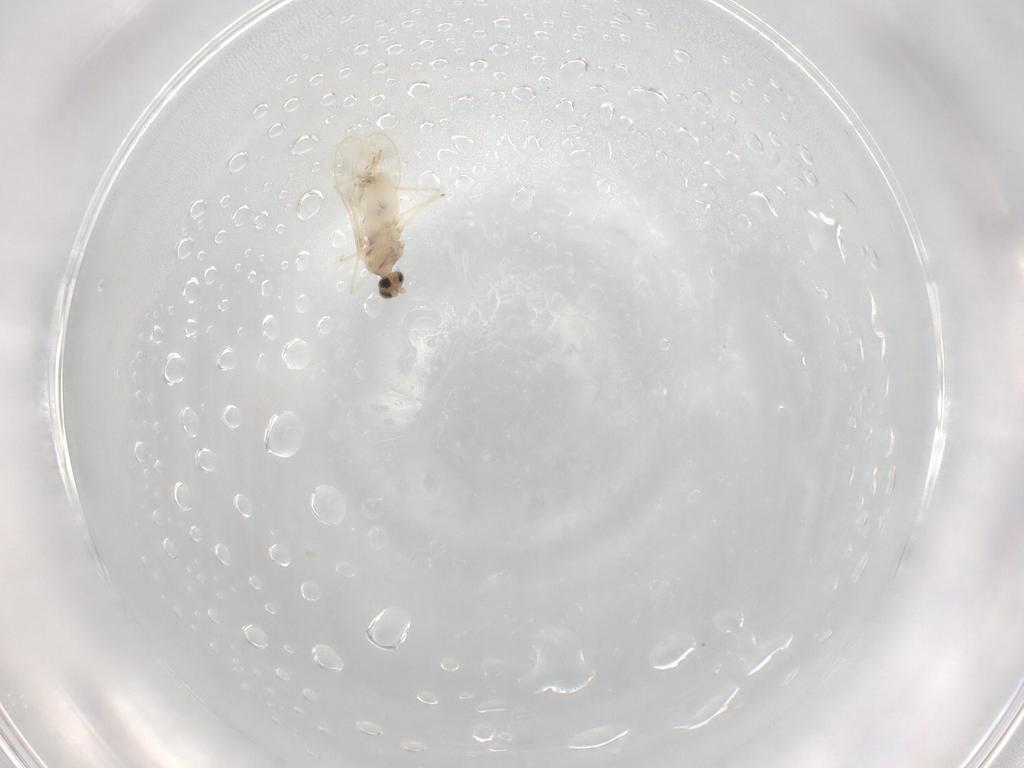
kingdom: Animalia
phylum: Arthropoda
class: Insecta
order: Diptera
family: Cecidomyiidae
